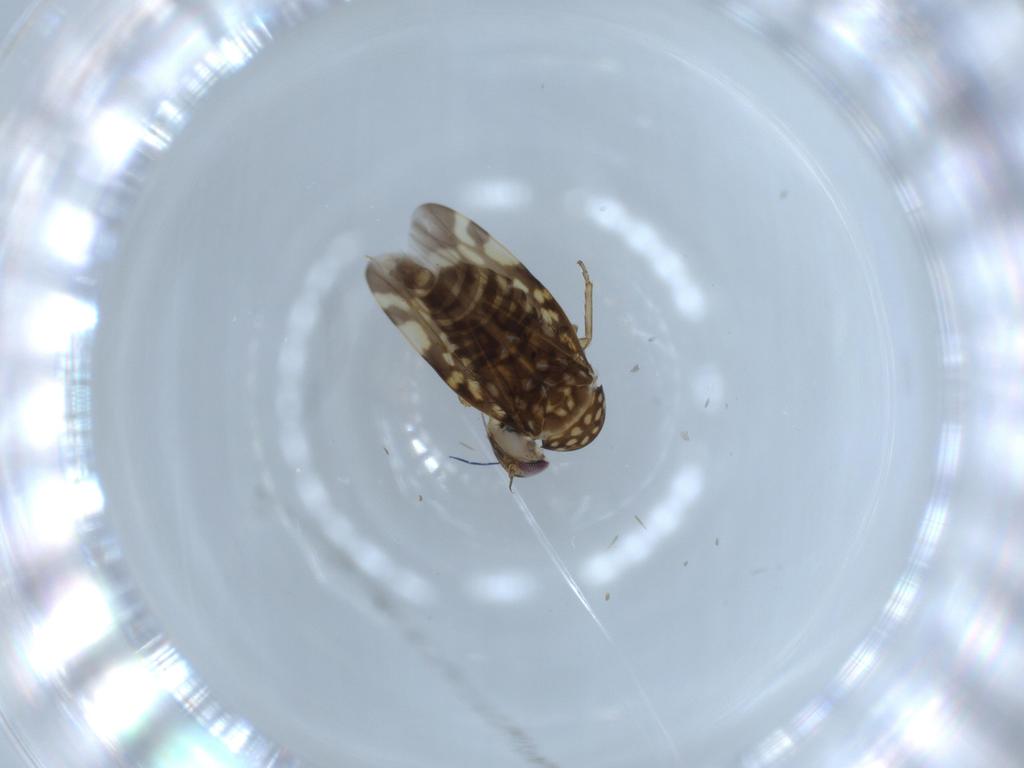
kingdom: Animalia
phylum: Arthropoda
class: Insecta
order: Hemiptera
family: Cicadellidae
